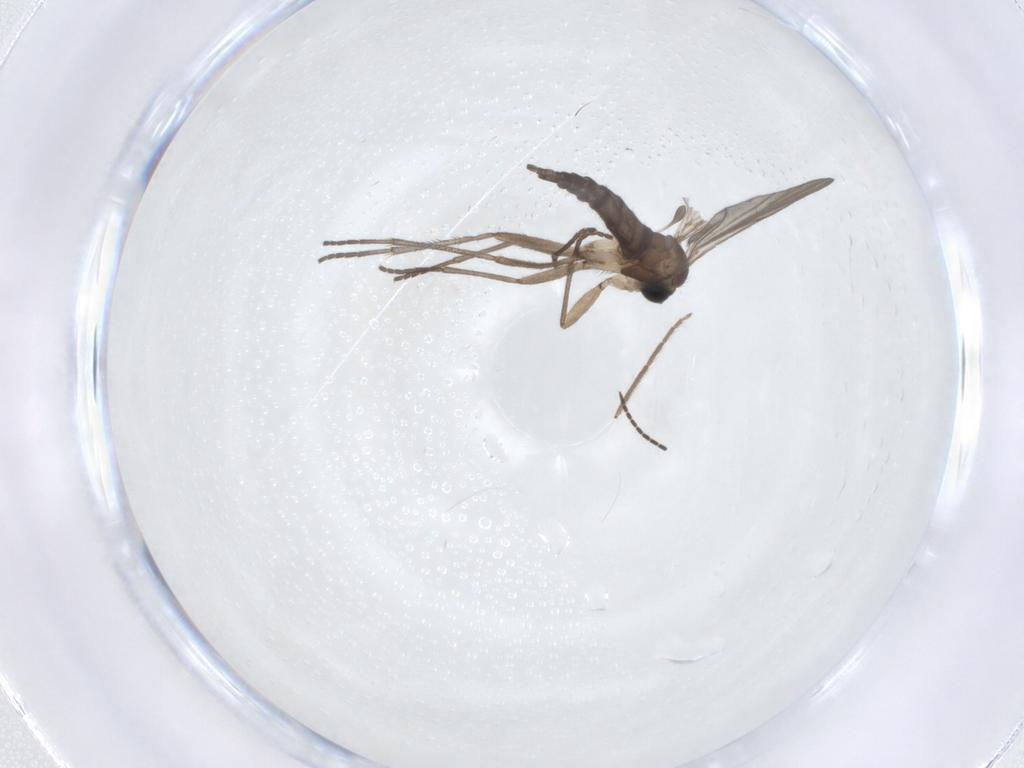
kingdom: Animalia
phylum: Arthropoda
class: Insecta
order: Diptera
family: Sciaridae
